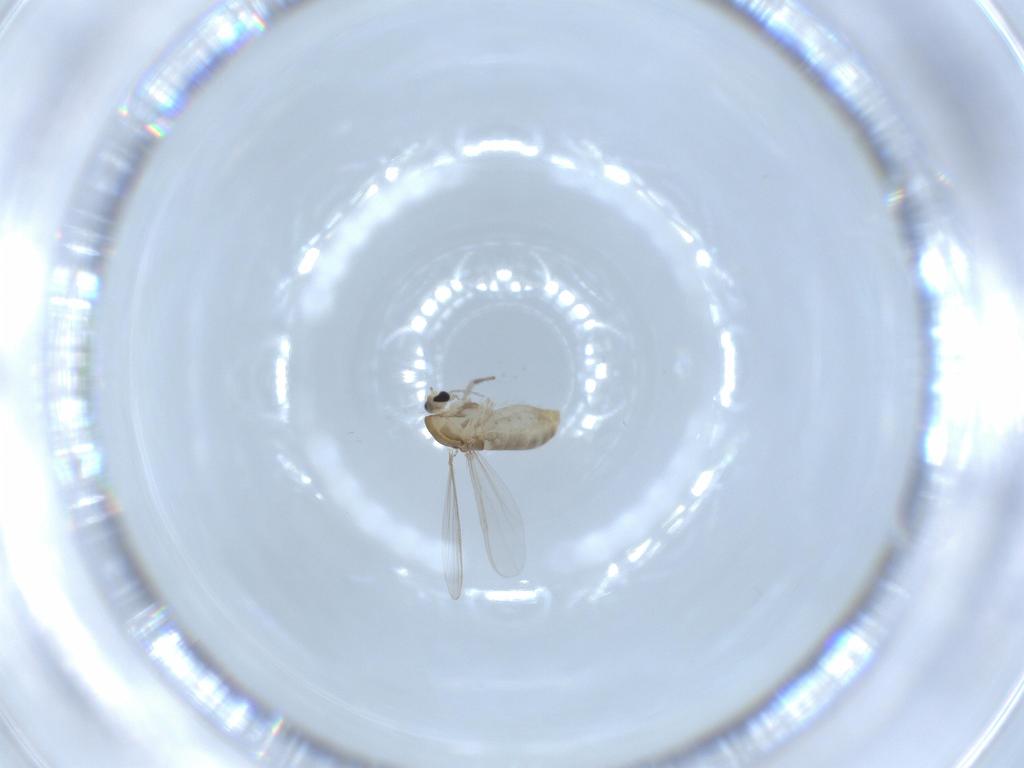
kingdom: Animalia
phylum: Arthropoda
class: Insecta
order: Diptera
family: Chironomidae
